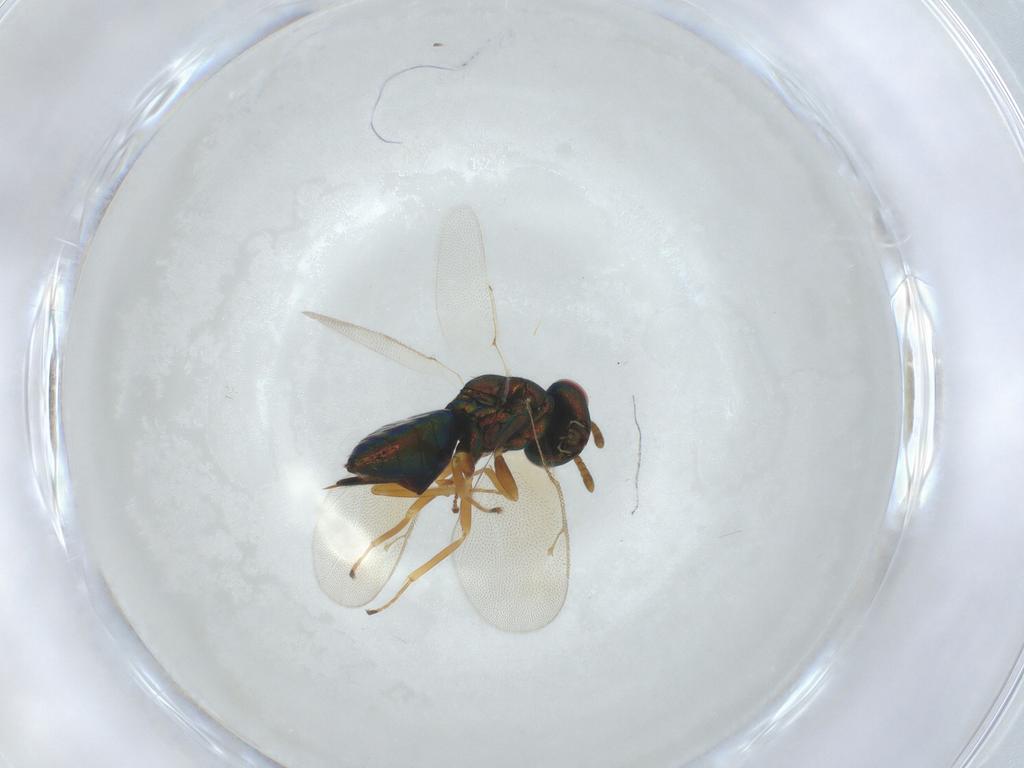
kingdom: Animalia
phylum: Arthropoda
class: Insecta
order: Hymenoptera
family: Pteromalidae
